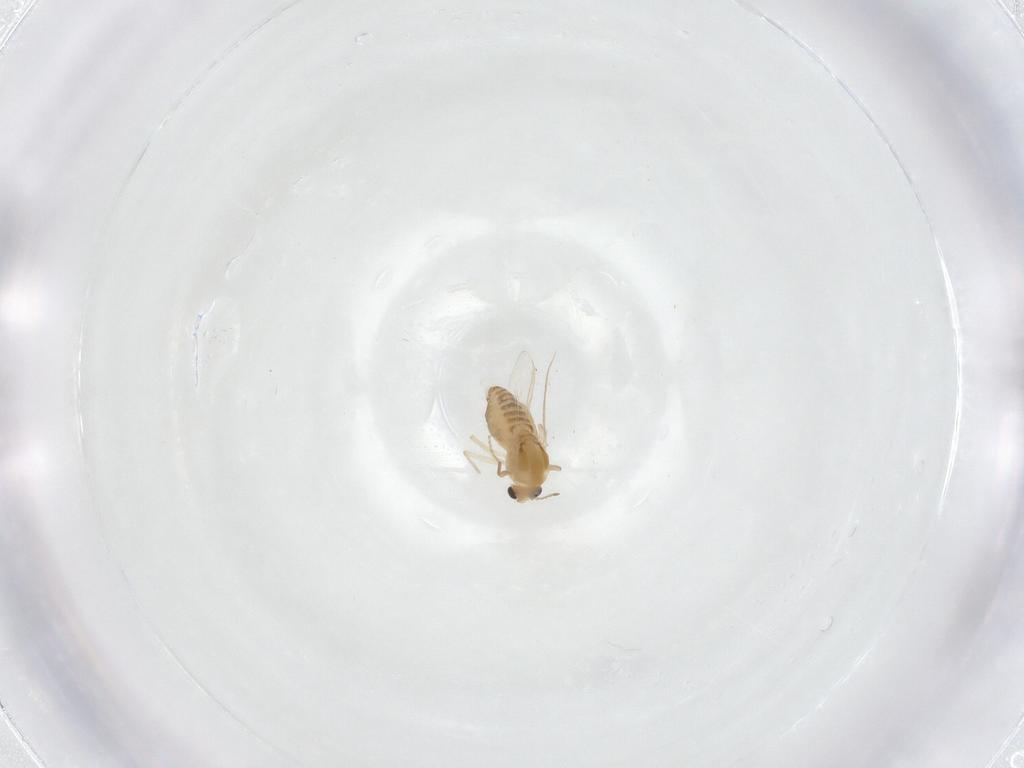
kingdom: Animalia
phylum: Arthropoda
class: Insecta
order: Diptera
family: Chironomidae
